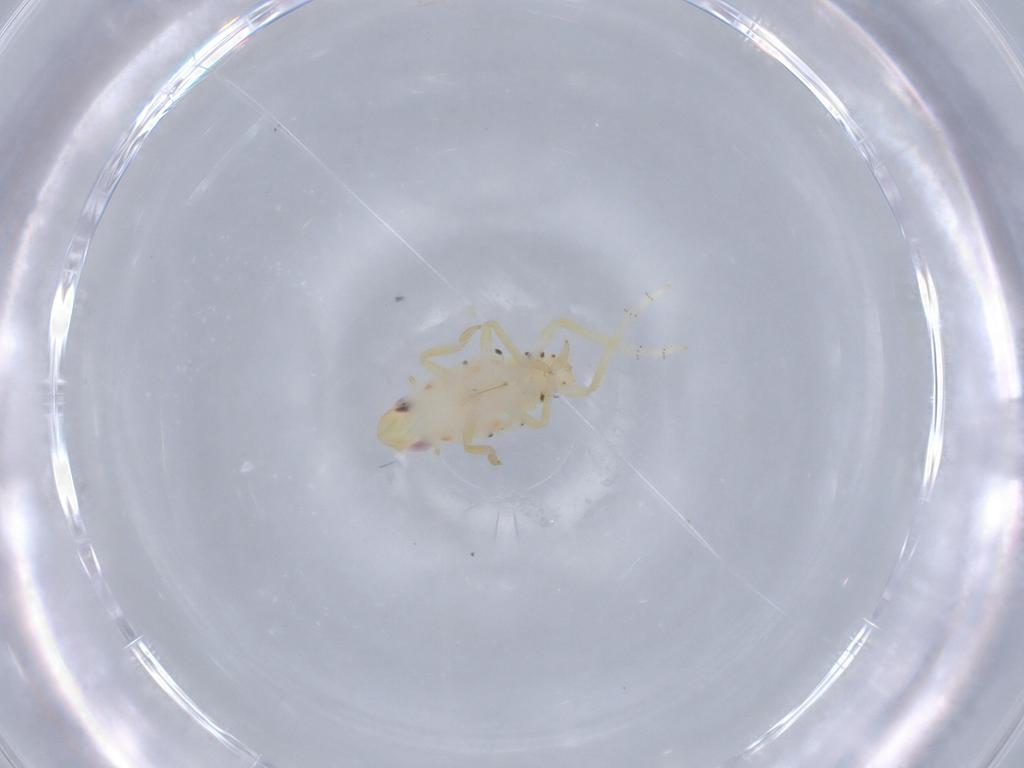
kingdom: Animalia
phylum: Arthropoda
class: Insecta
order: Hemiptera
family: Tropiduchidae
